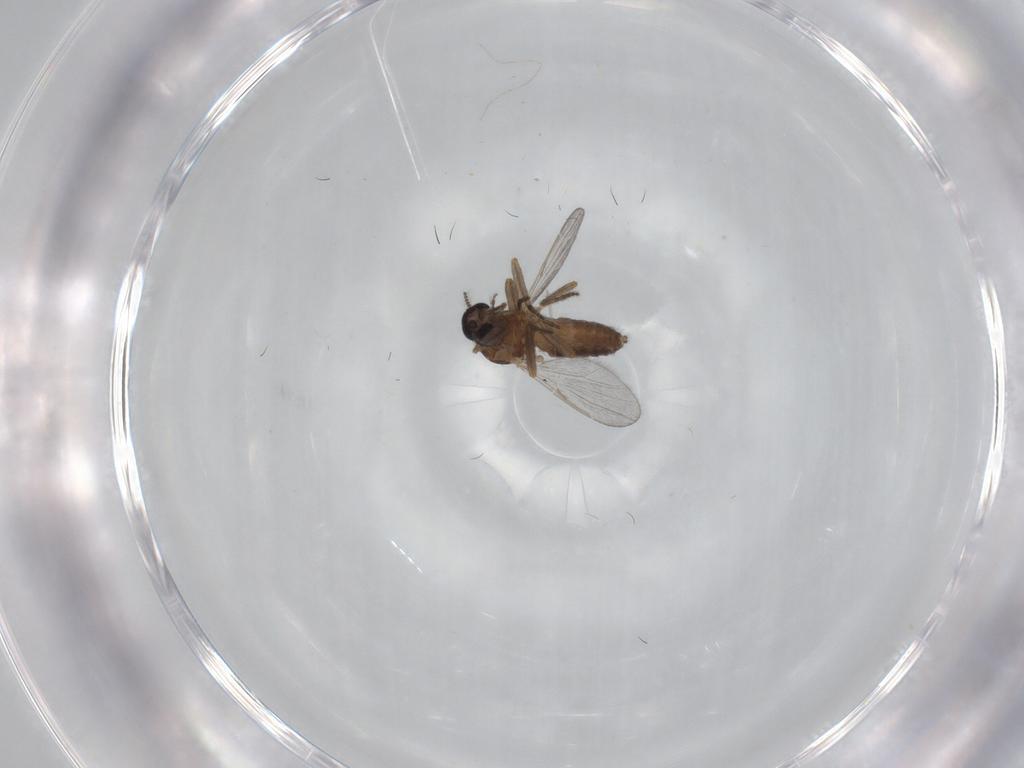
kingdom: Animalia
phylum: Arthropoda
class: Insecta
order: Diptera
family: Ceratopogonidae
